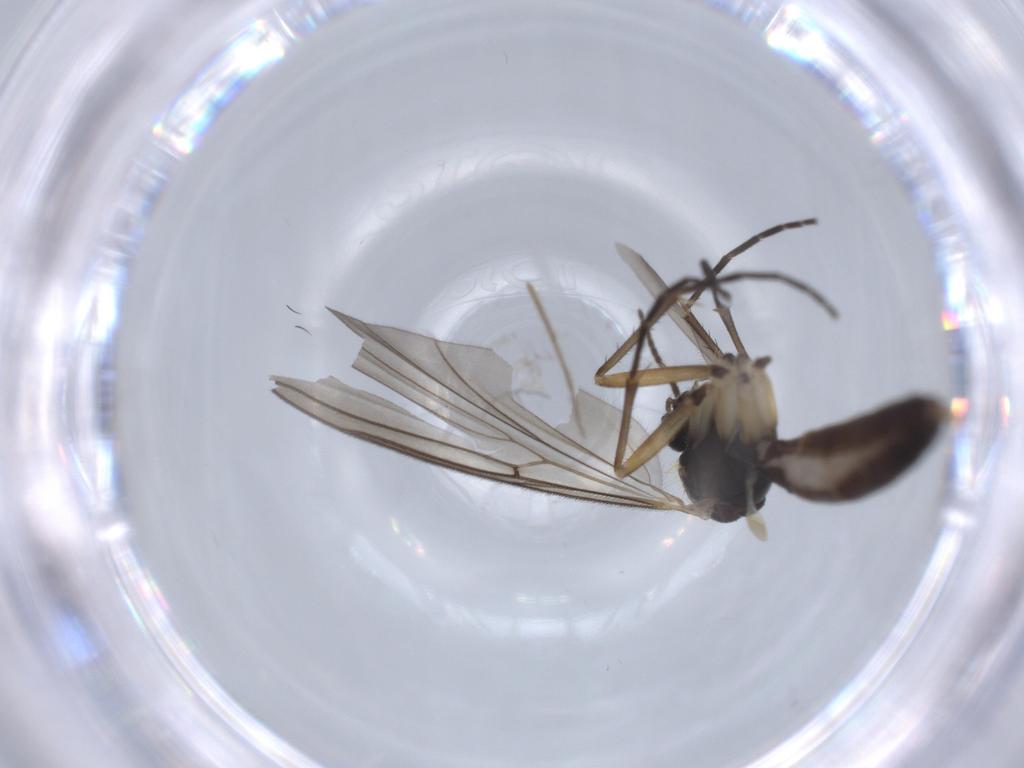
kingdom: Animalia
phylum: Arthropoda
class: Insecta
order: Diptera
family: Mycetophilidae
